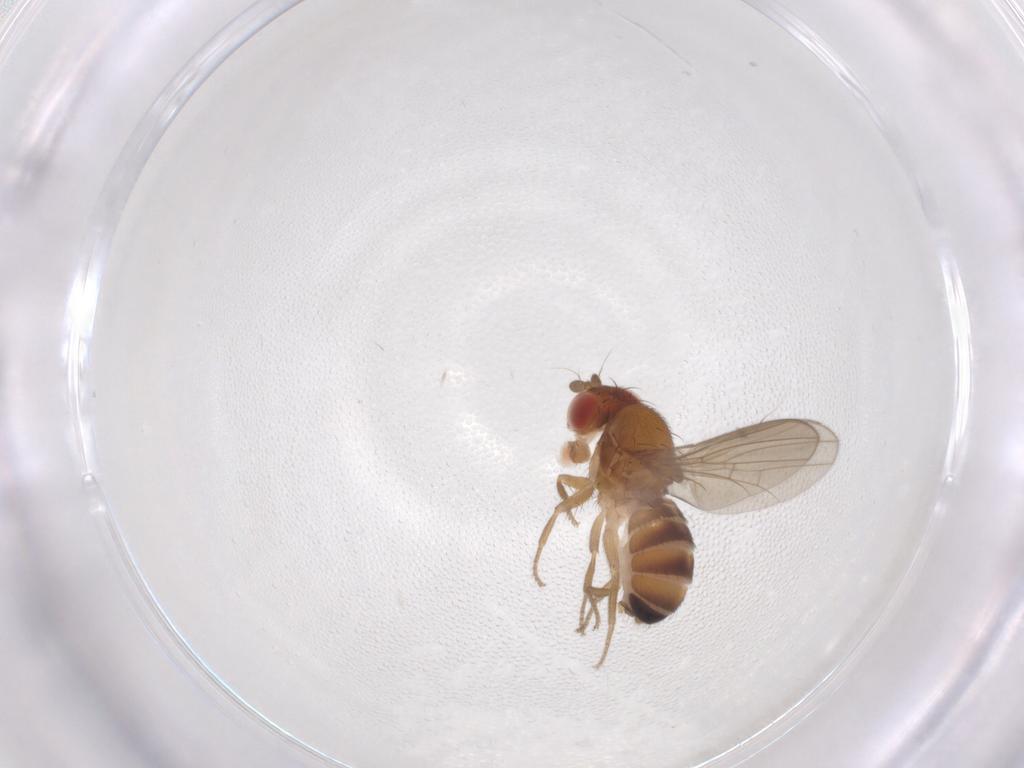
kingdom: Animalia
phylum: Arthropoda
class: Insecta
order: Diptera
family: Drosophilidae
